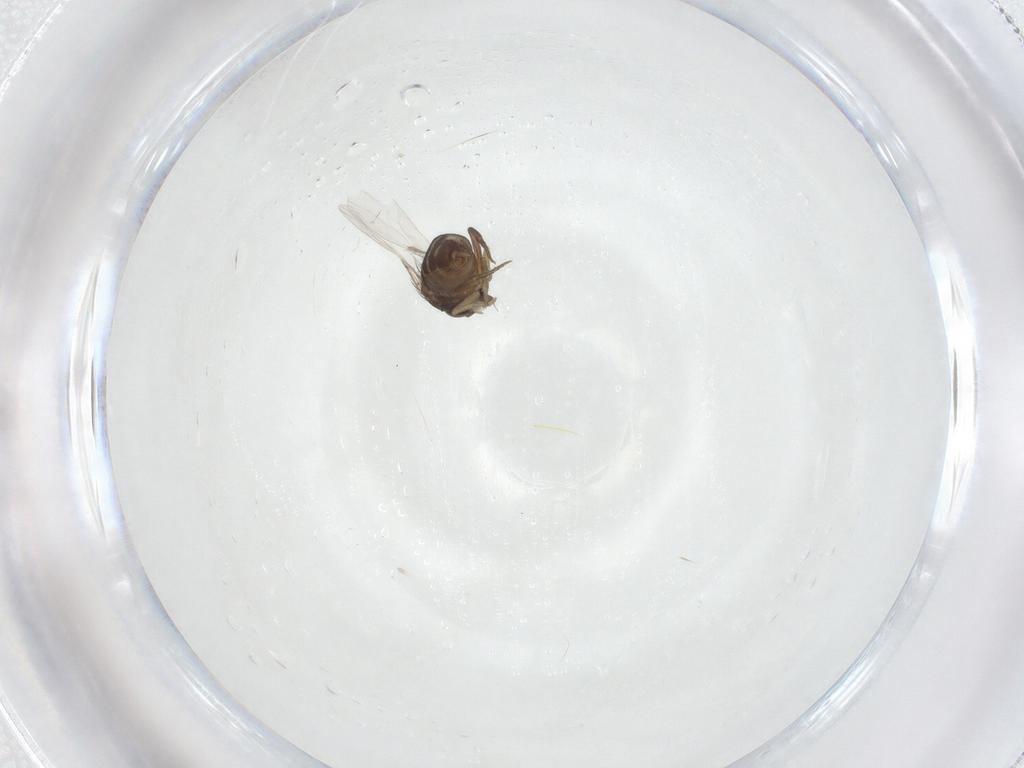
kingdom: Animalia
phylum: Arthropoda
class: Insecta
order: Diptera
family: Phoridae
